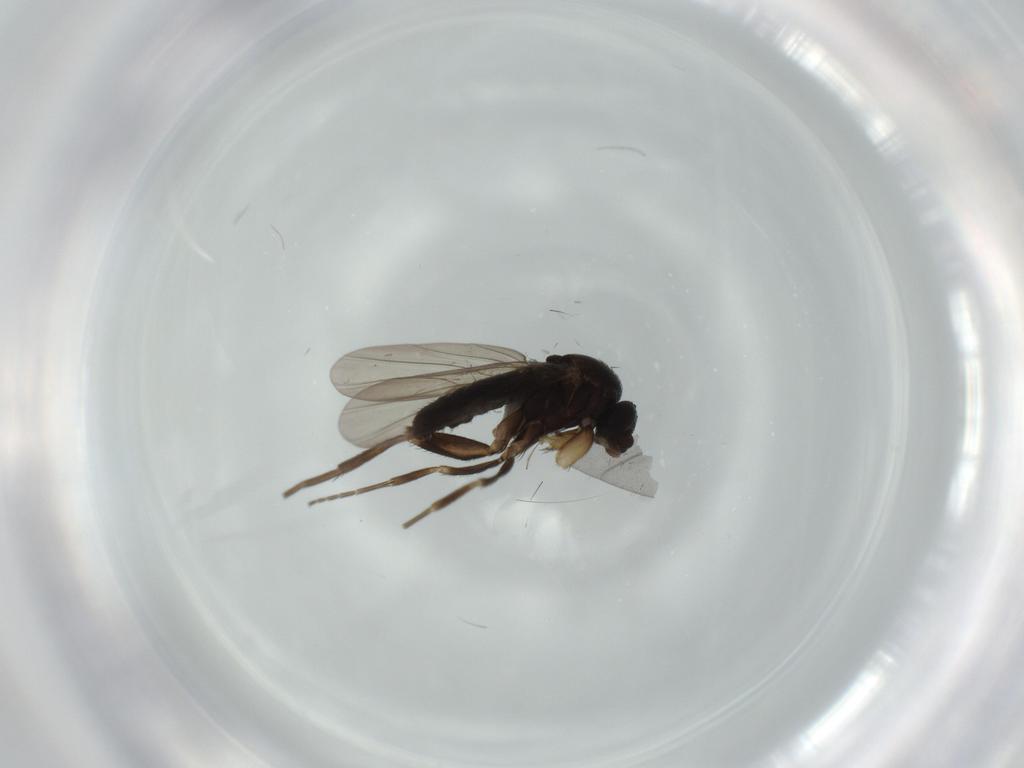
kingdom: Animalia
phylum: Arthropoda
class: Insecta
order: Diptera
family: Phoridae
